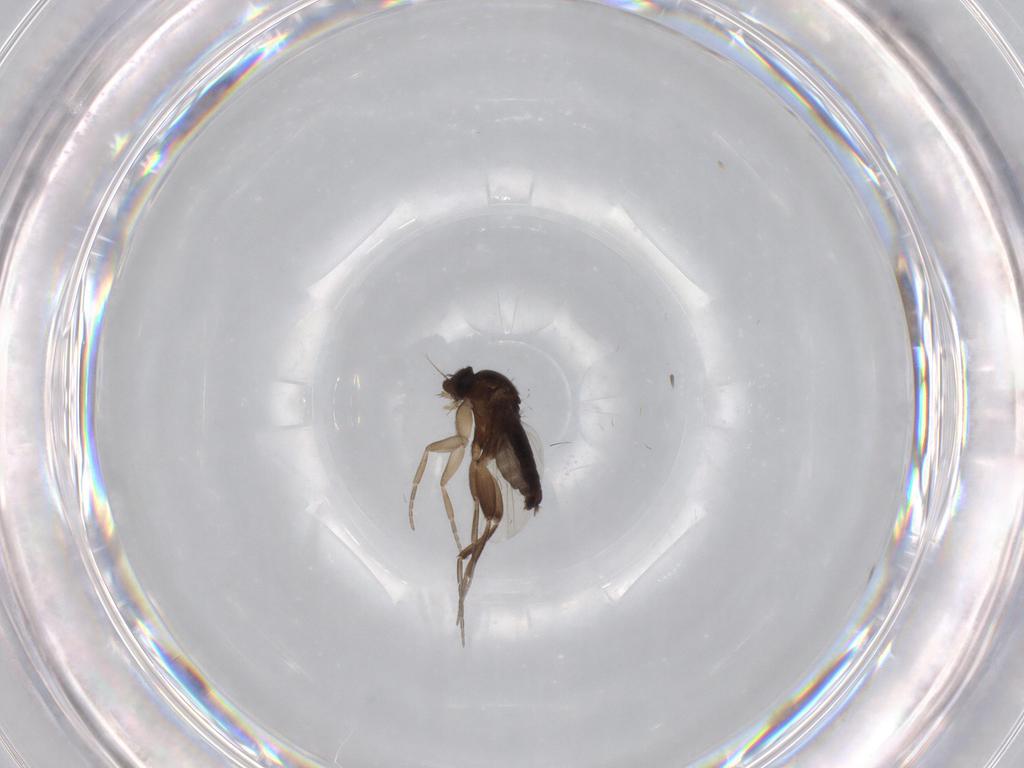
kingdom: Animalia
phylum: Arthropoda
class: Insecta
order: Diptera
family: Phoridae
